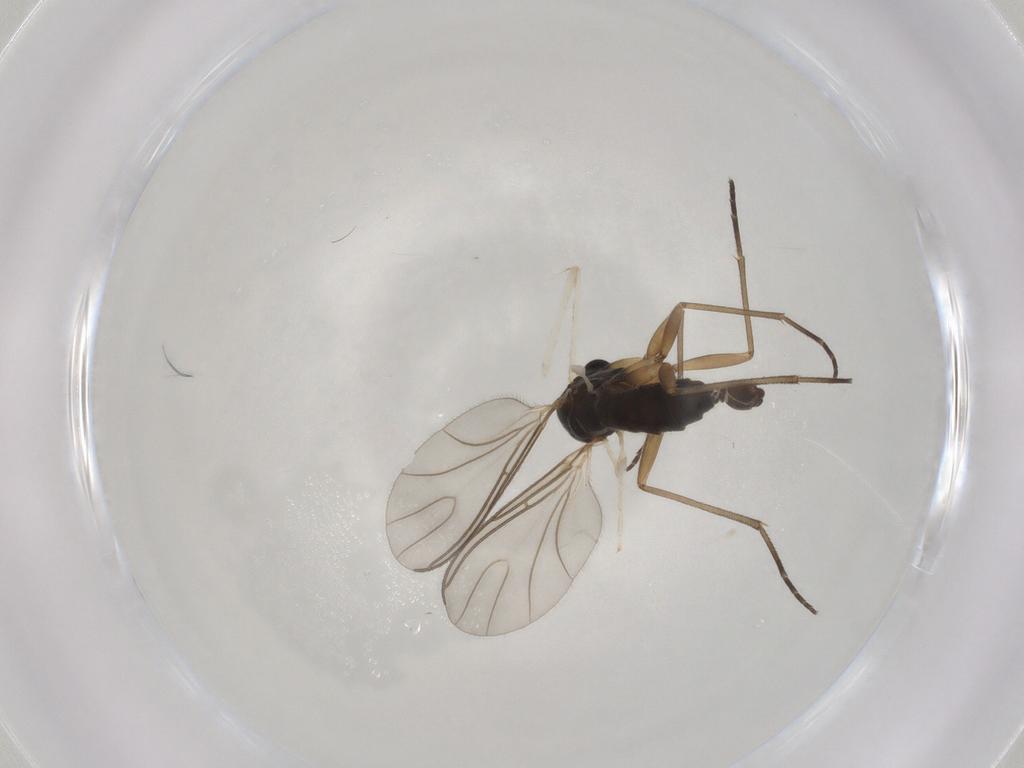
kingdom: Animalia
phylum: Arthropoda
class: Insecta
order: Diptera
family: Sciaridae
